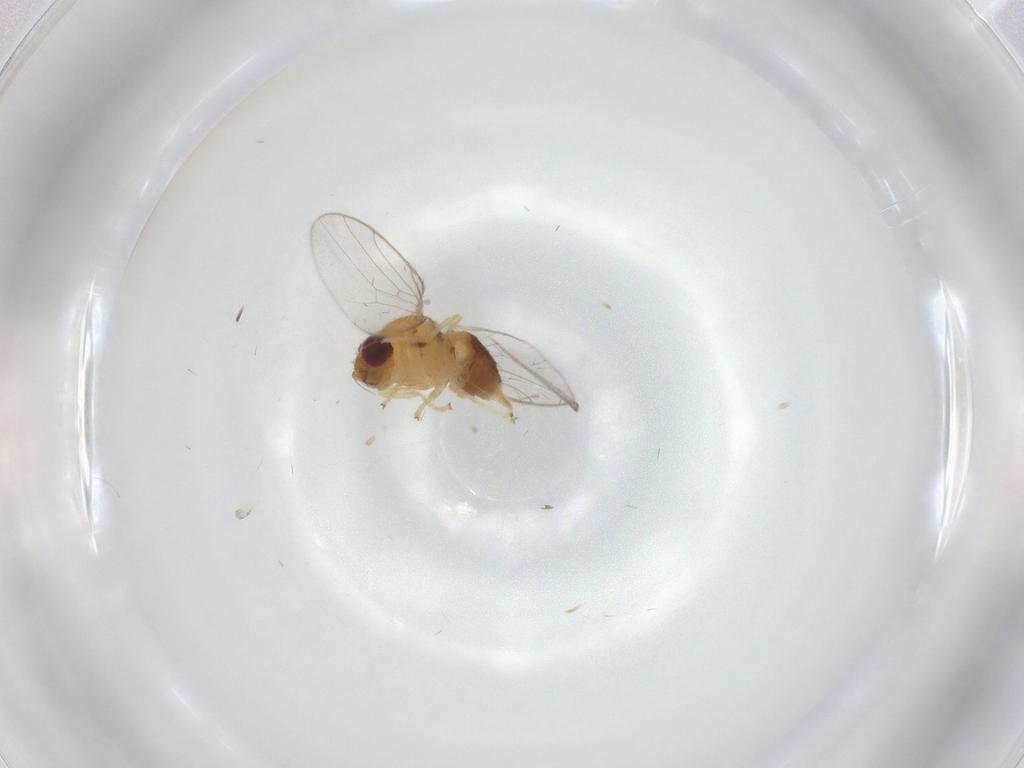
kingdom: Animalia
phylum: Arthropoda
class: Insecta
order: Diptera
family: Chloropidae
